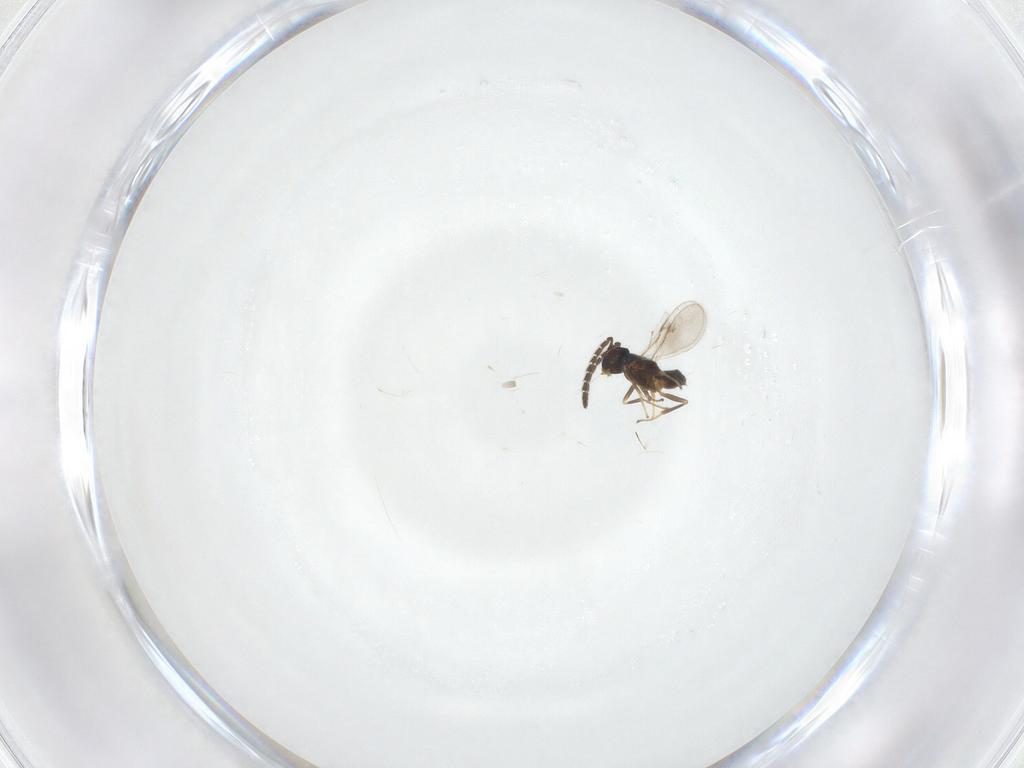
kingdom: Animalia
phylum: Arthropoda
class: Insecta
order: Hymenoptera
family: Encyrtidae
